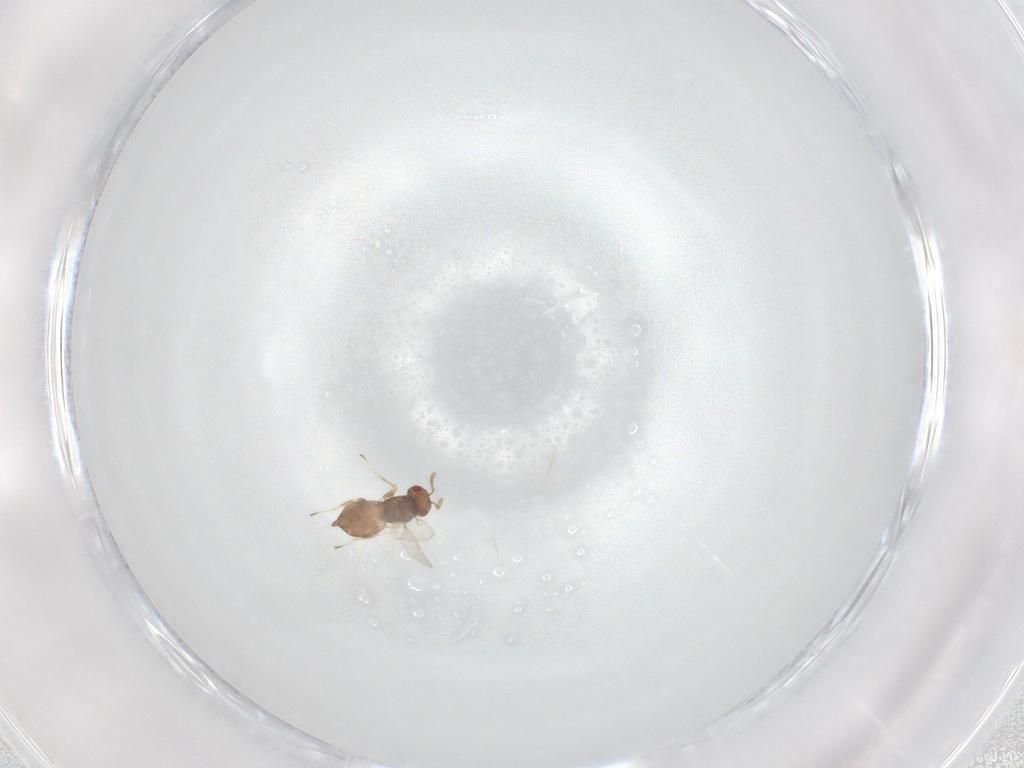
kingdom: Animalia
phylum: Arthropoda
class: Insecta
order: Hymenoptera
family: Eulophidae
